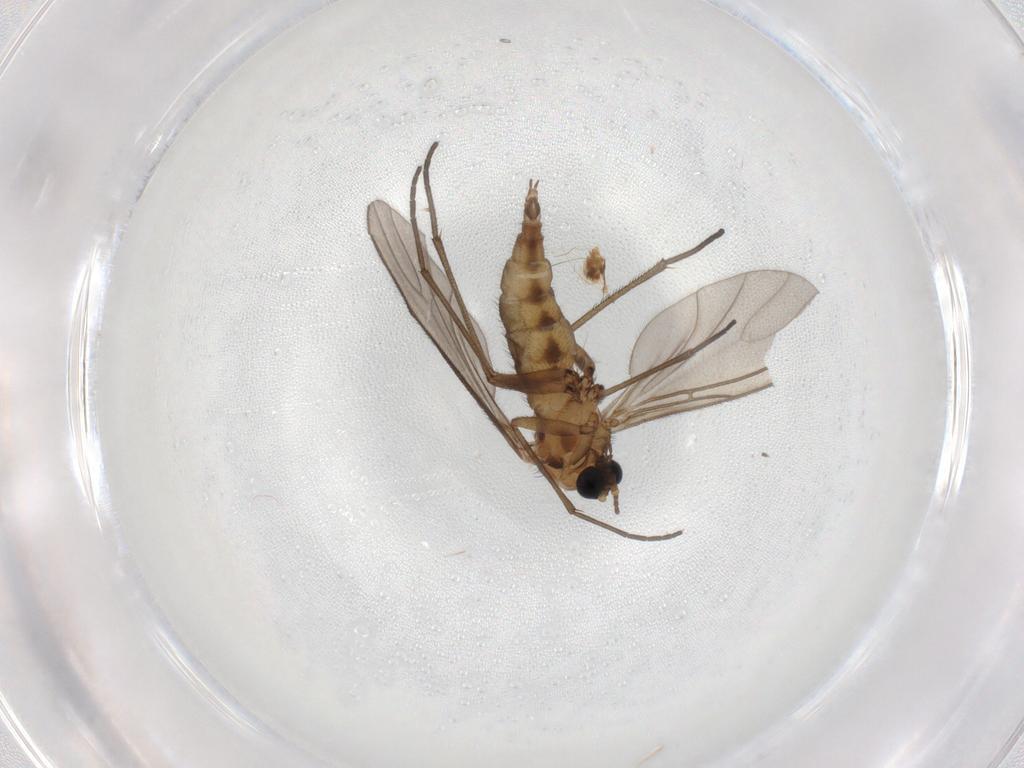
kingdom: Animalia
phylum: Arthropoda
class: Insecta
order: Diptera
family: Sciaridae
